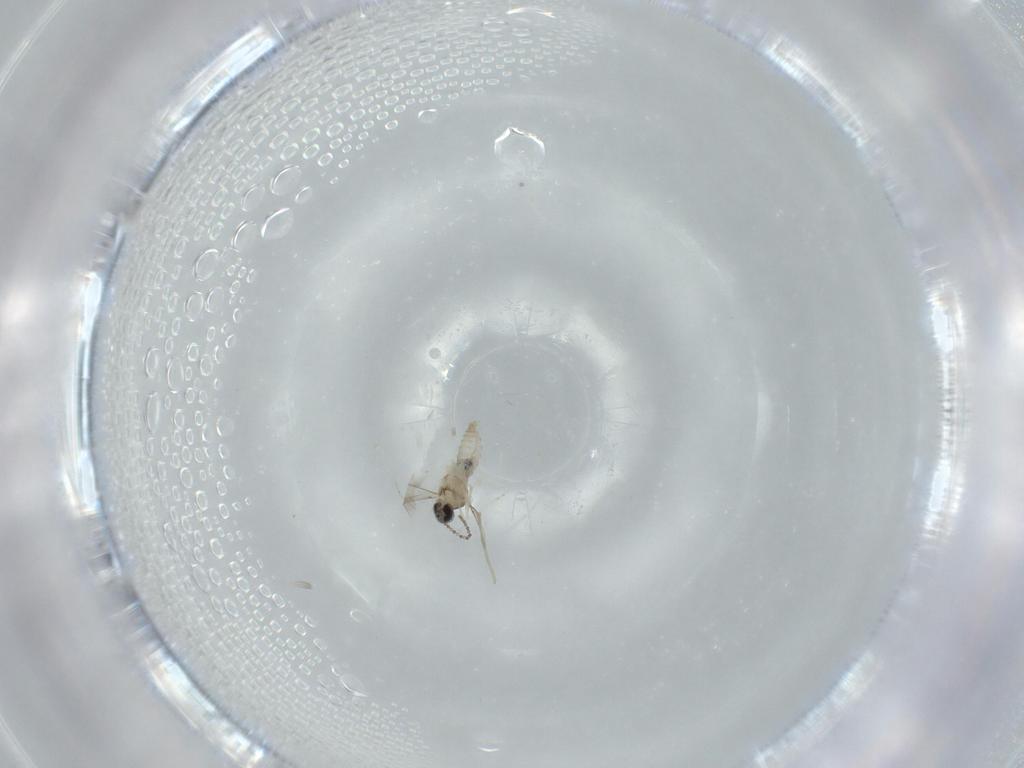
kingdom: Animalia
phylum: Arthropoda
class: Insecta
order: Diptera
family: Cecidomyiidae
